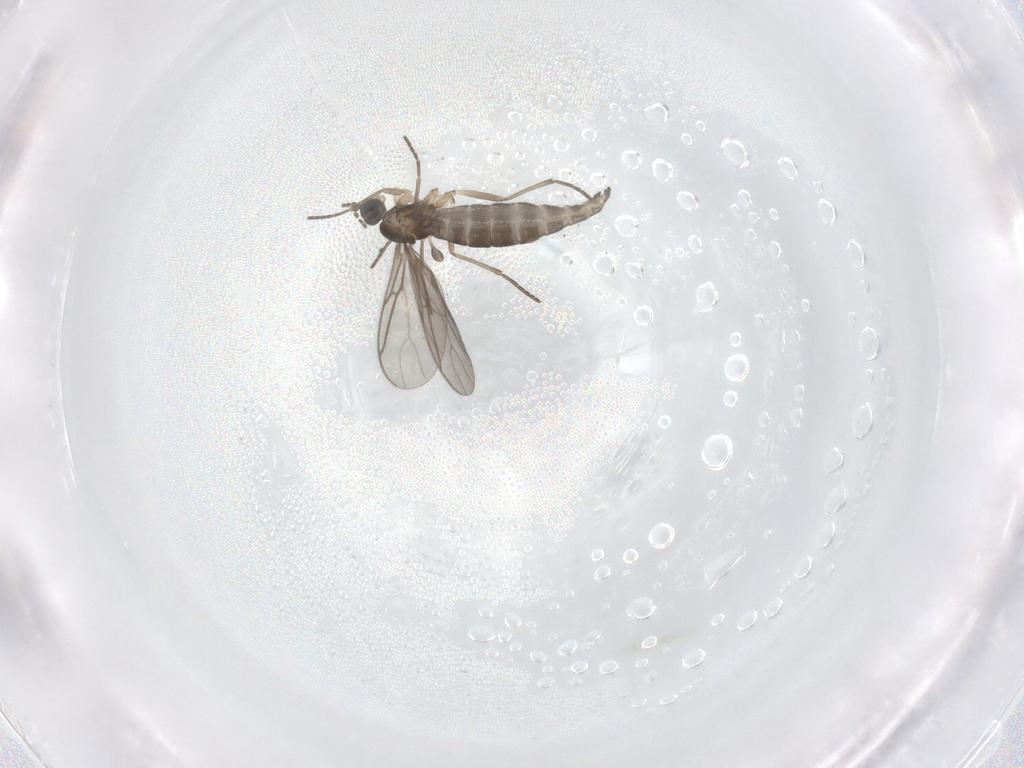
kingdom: Animalia
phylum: Arthropoda
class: Insecta
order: Diptera
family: Sciaridae
